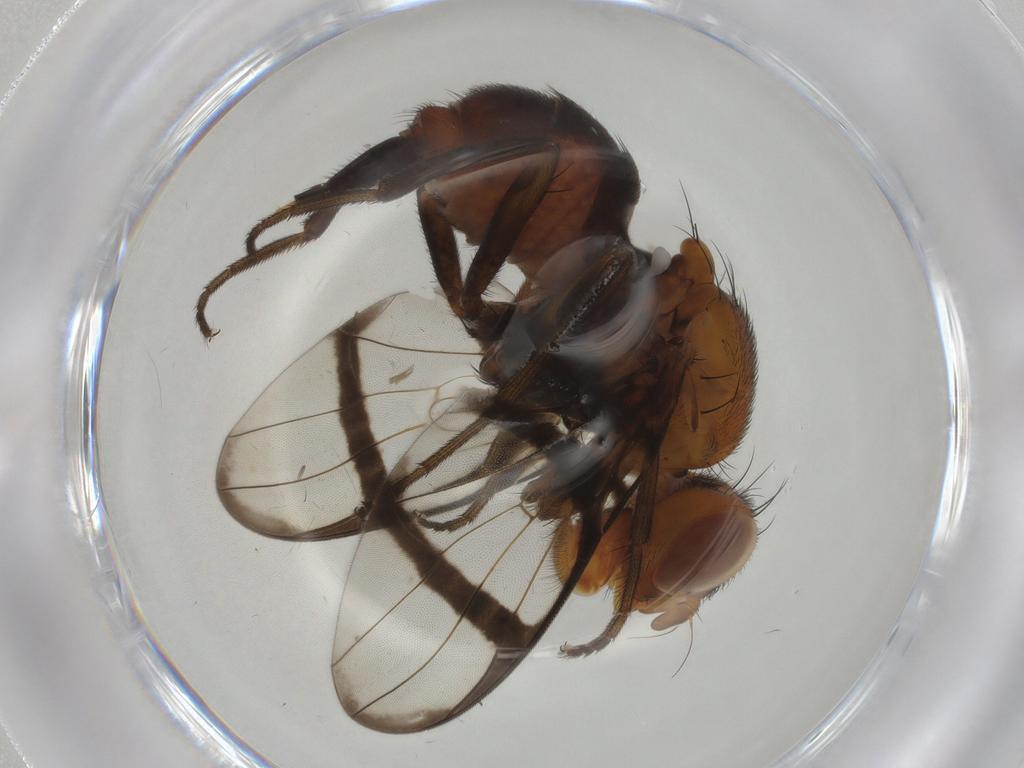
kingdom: Animalia
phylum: Arthropoda
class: Insecta
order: Diptera
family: Richardiidae
